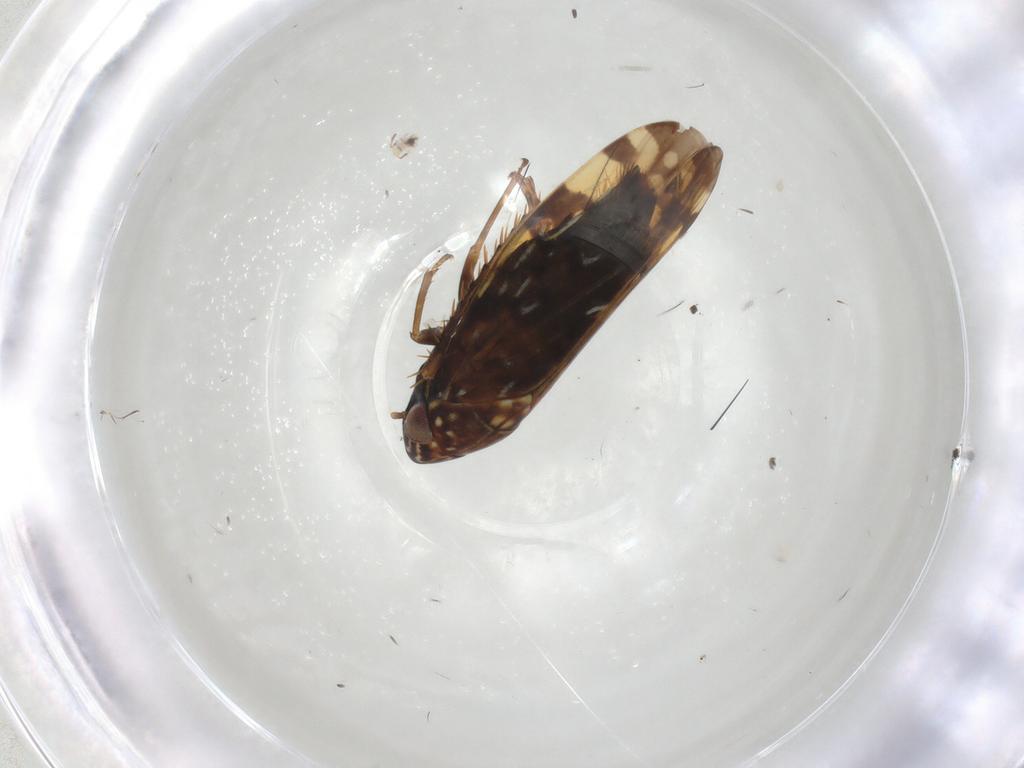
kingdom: Animalia
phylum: Arthropoda
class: Insecta
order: Hemiptera
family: Cicadellidae
